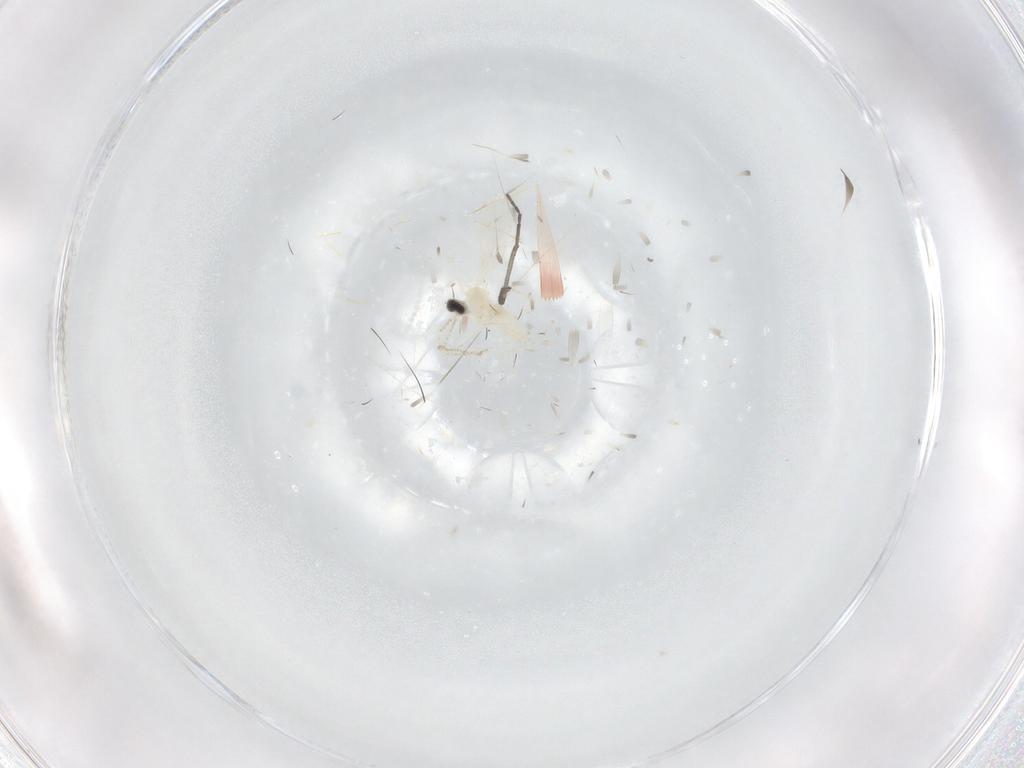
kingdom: Animalia
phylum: Arthropoda
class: Insecta
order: Diptera
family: Cecidomyiidae
